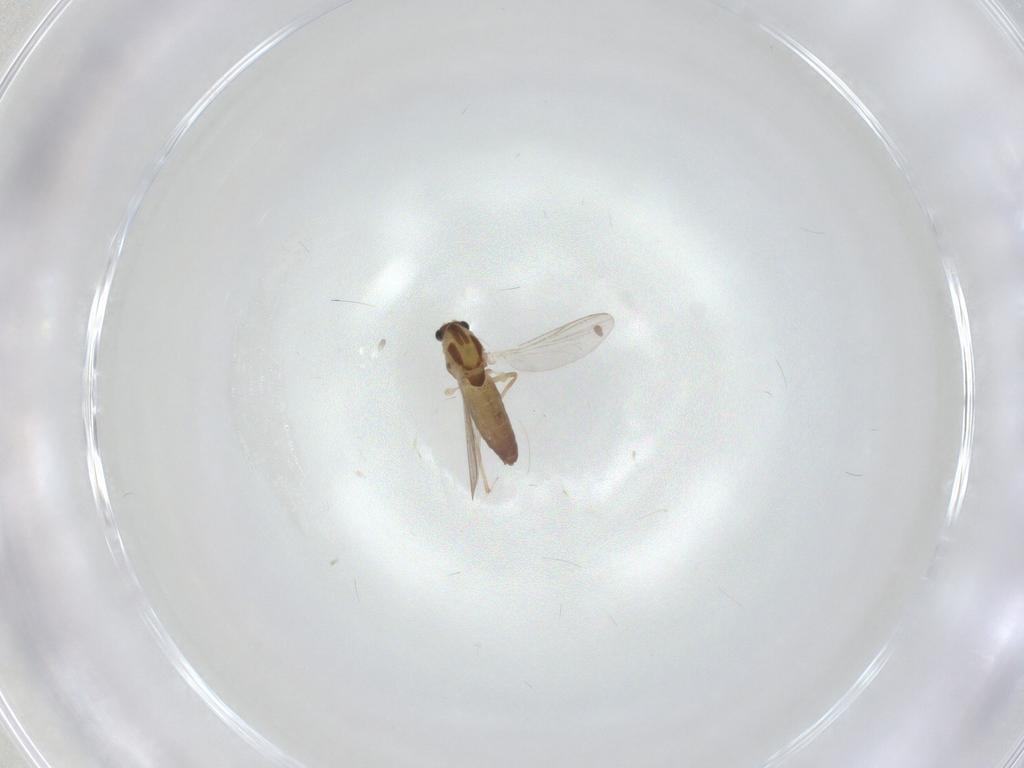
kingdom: Animalia
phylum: Arthropoda
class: Insecta
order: Diptera
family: Chironomidae
